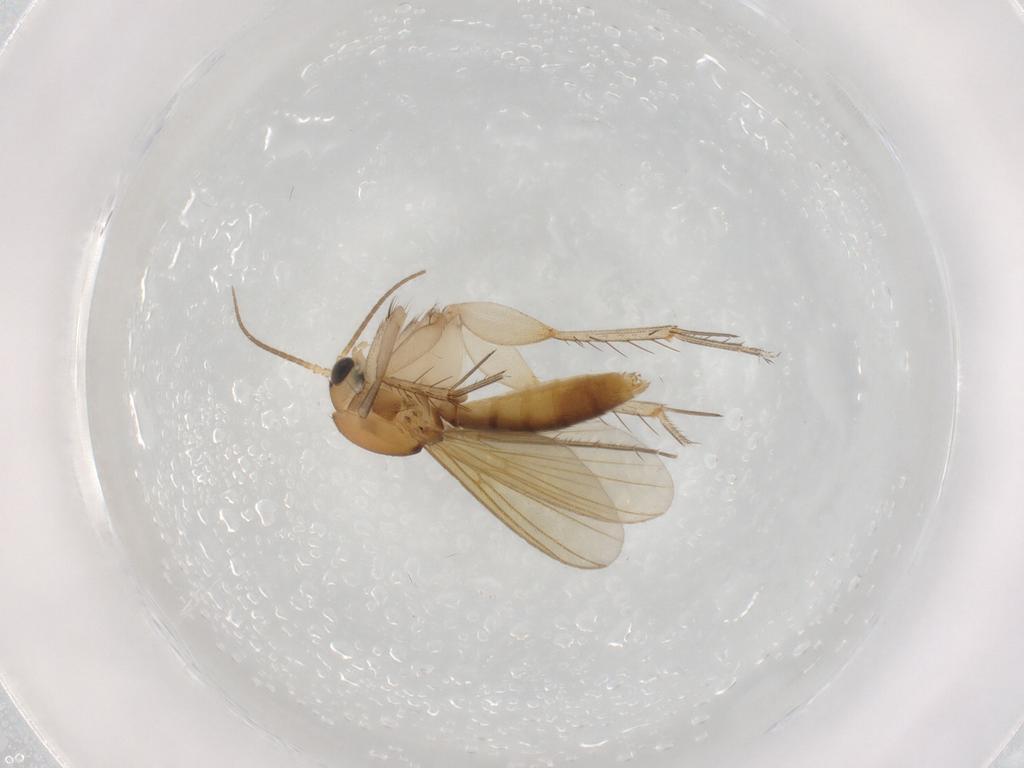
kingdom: Animalia
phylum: Arthropoda
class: Insecta
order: Diptera
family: Mycetophilidae
